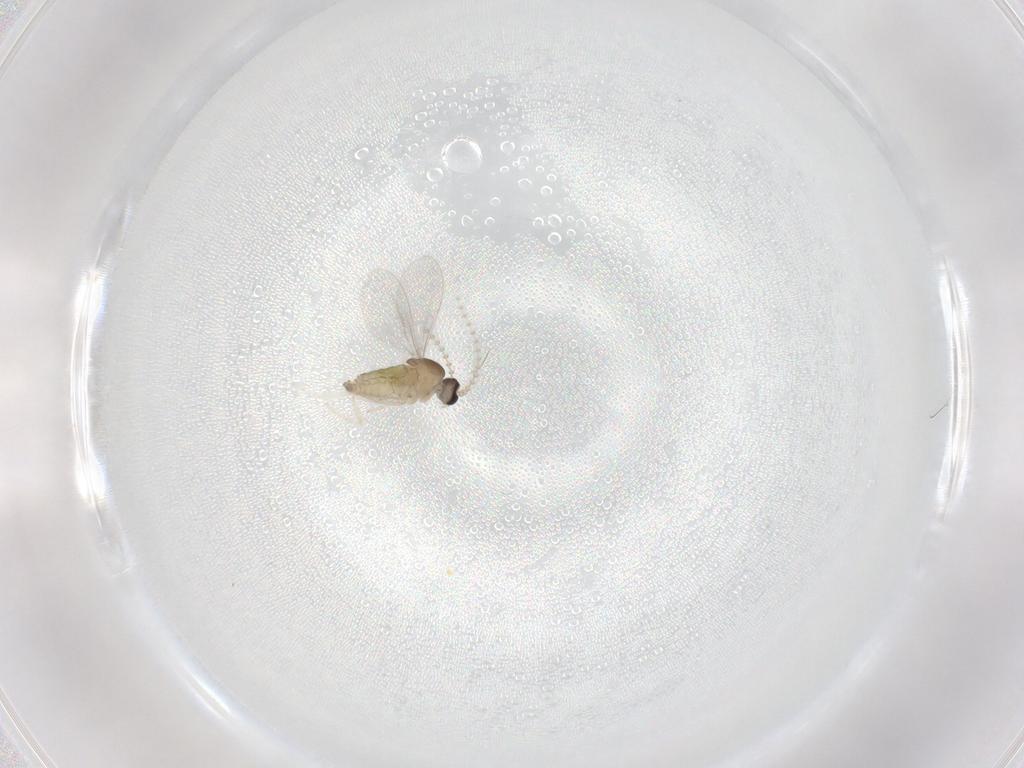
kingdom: Animalia
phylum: Arthropoda
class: Insecta
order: Diptera
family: Cecidomyiidae
